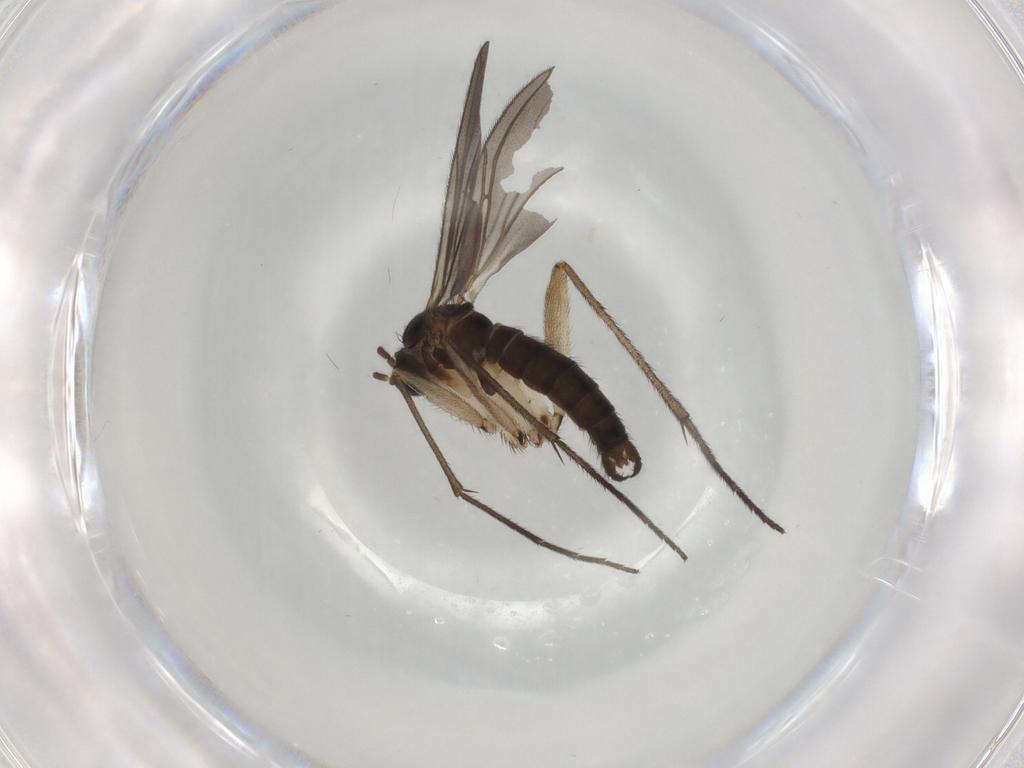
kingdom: Animalia
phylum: Arthropoda
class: Insecta
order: Diptera
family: Sciaridae
